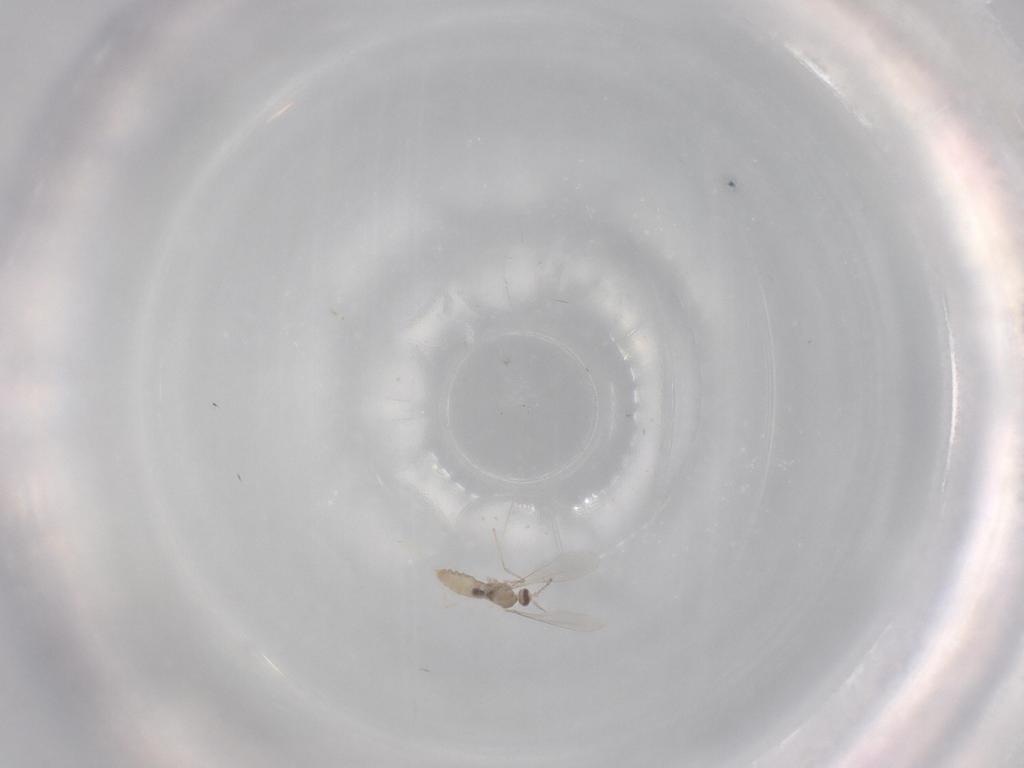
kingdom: Animalia
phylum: Arthropoda
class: Insecta
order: Diptera
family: Cecidomyiidae
